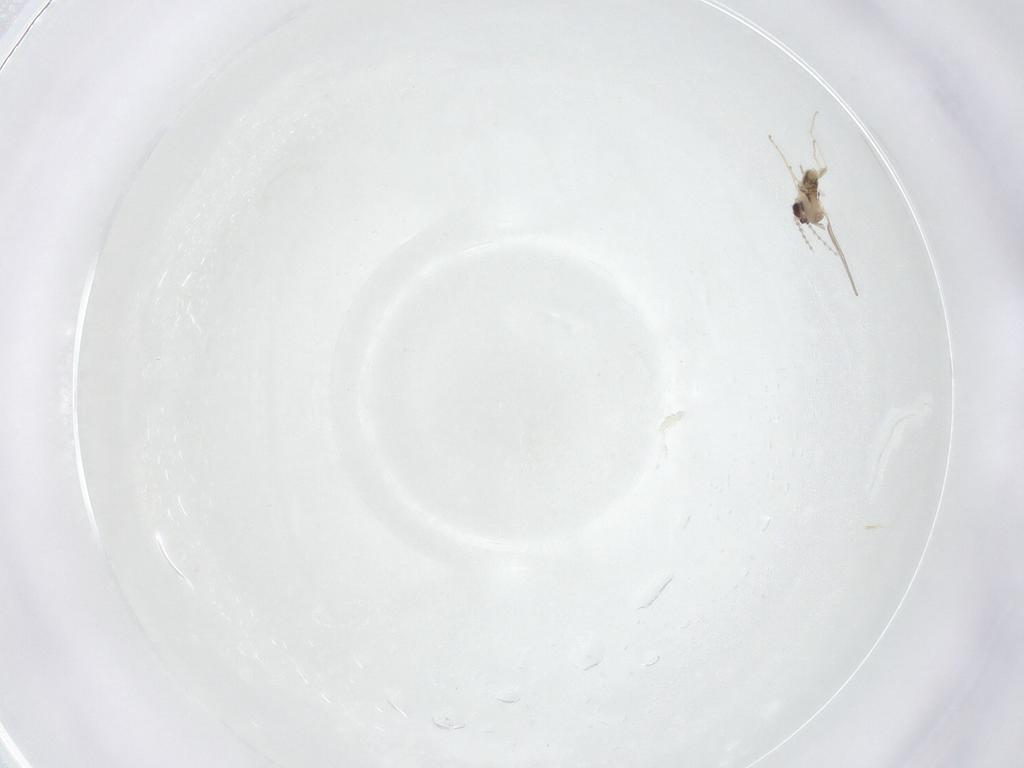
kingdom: Animalia
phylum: Arthropoda
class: Insecta
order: Diptera
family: Cecidomyiidae
